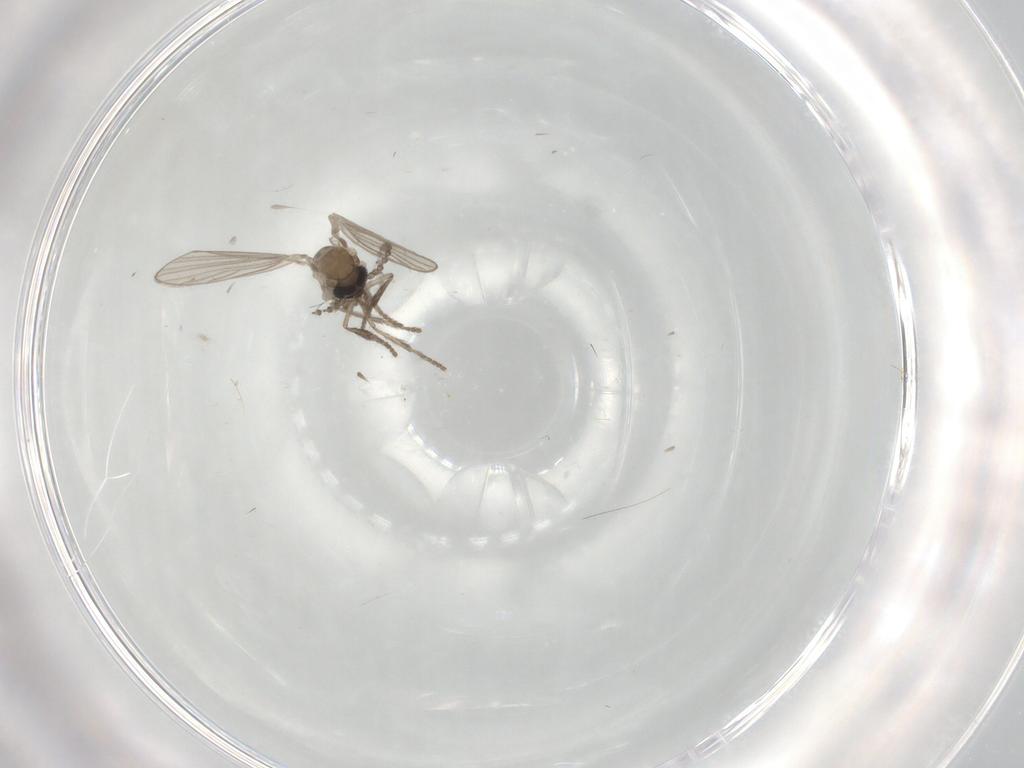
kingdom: Animalia
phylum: Arthropoda
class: Insecta
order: Diptera
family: Cecidomyiidae
